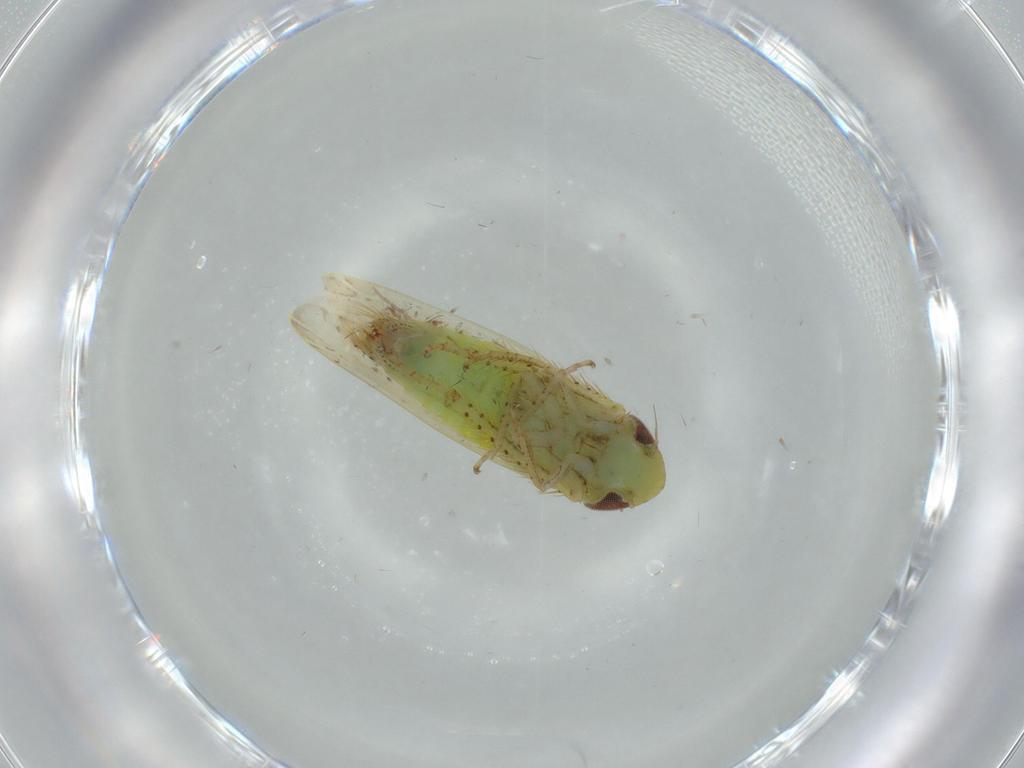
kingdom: Animalia
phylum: Arthropoda
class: Insecta
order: Hemiptera
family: Cicadellidae
